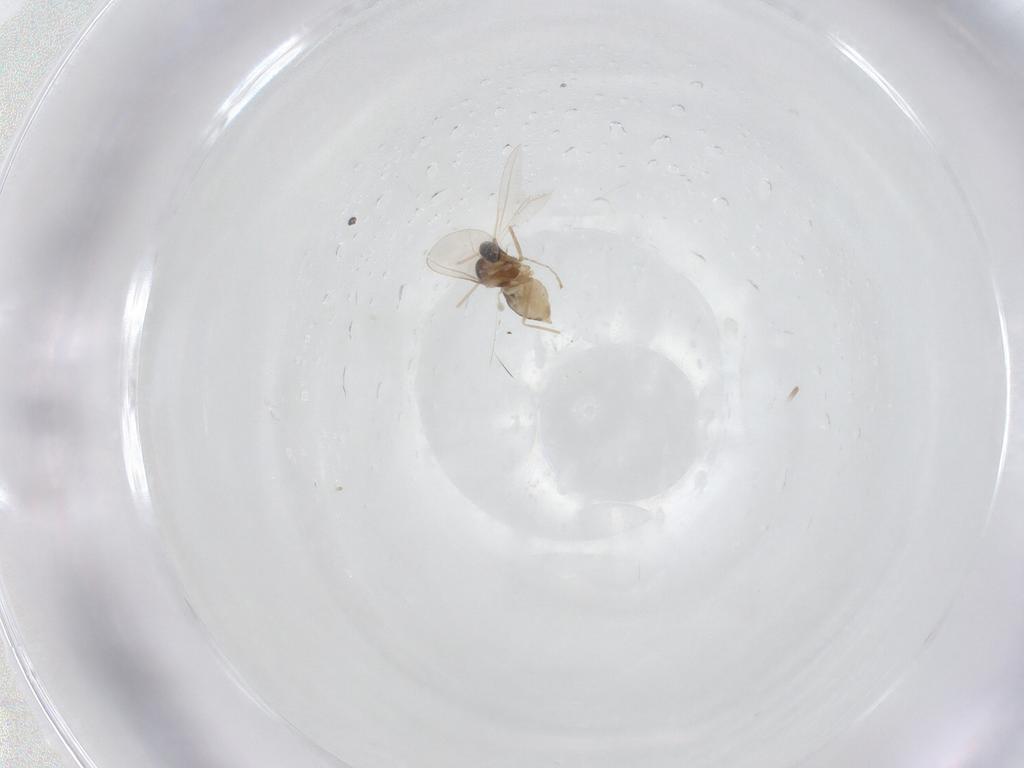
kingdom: Animalia
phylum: Arthropoda
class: Insecta
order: Diptera
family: Cecidomyiidae
